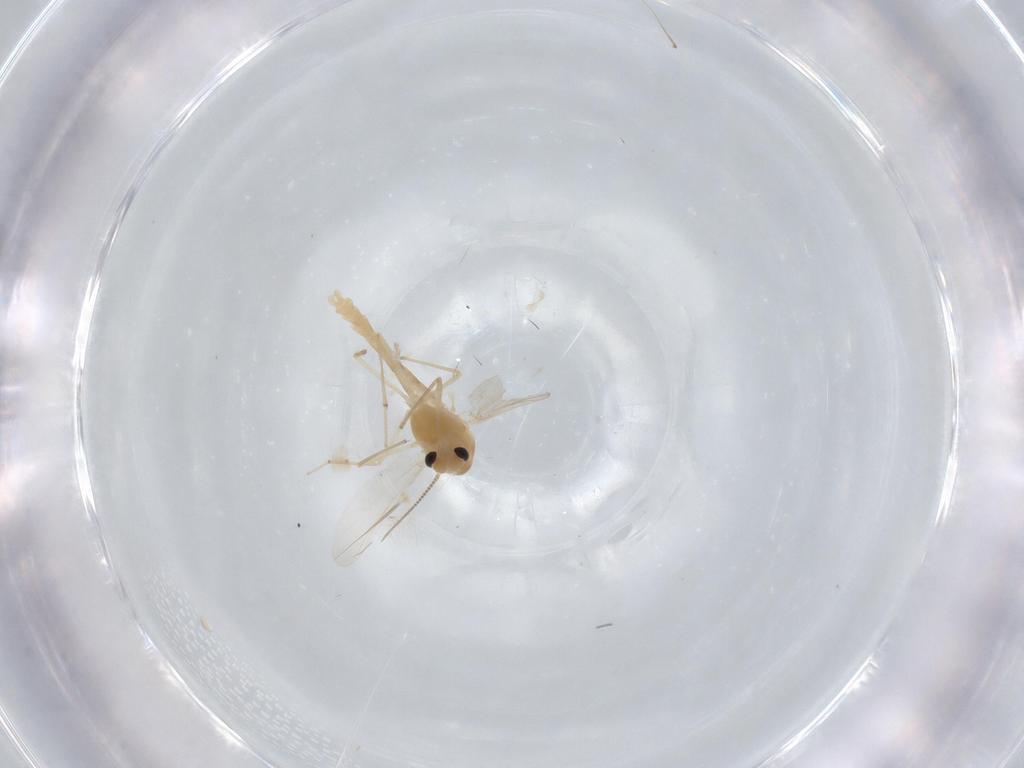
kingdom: Animalia
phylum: Arthropoda
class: Insecta
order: Diptera
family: Chironomidae
